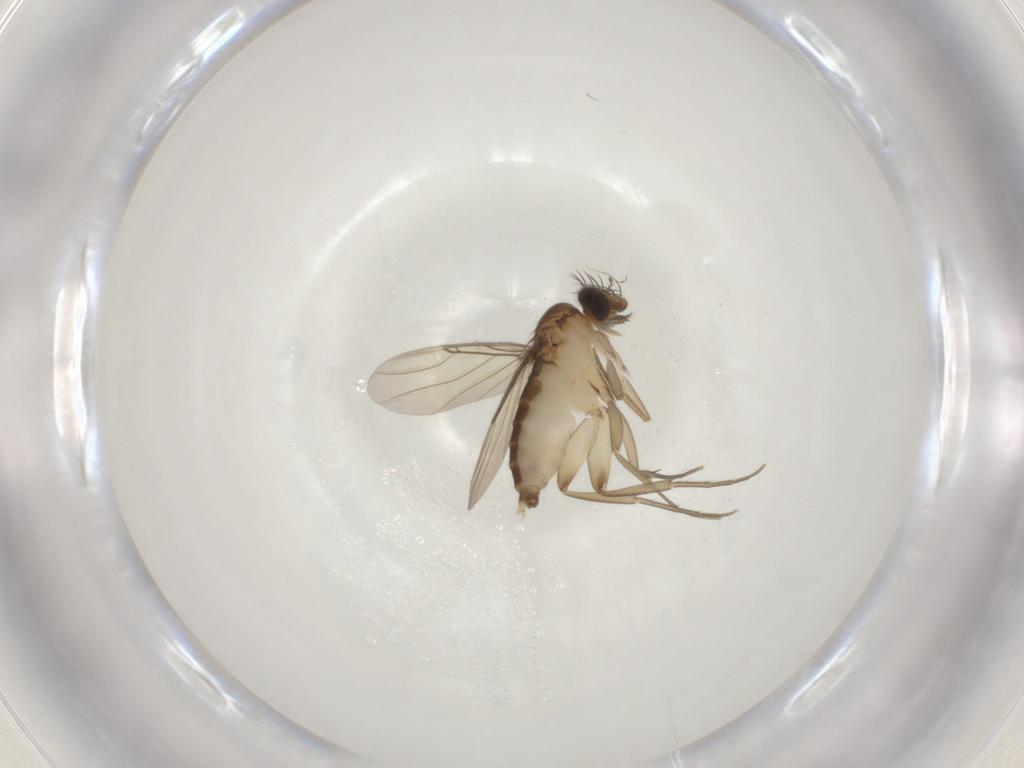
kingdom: Animalia
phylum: Arthropoda
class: Insecta
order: Diptera
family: Phoridae
